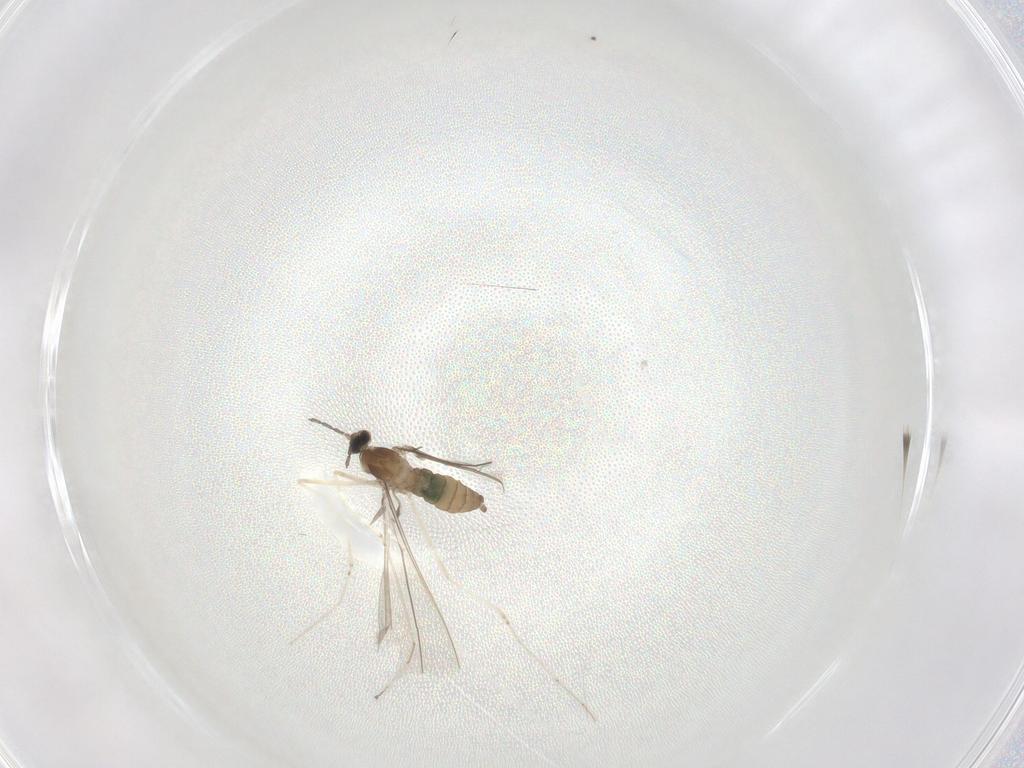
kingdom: Animalia
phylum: Arthropoda
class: Insecta
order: Diptera
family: Cecidomyiidae
